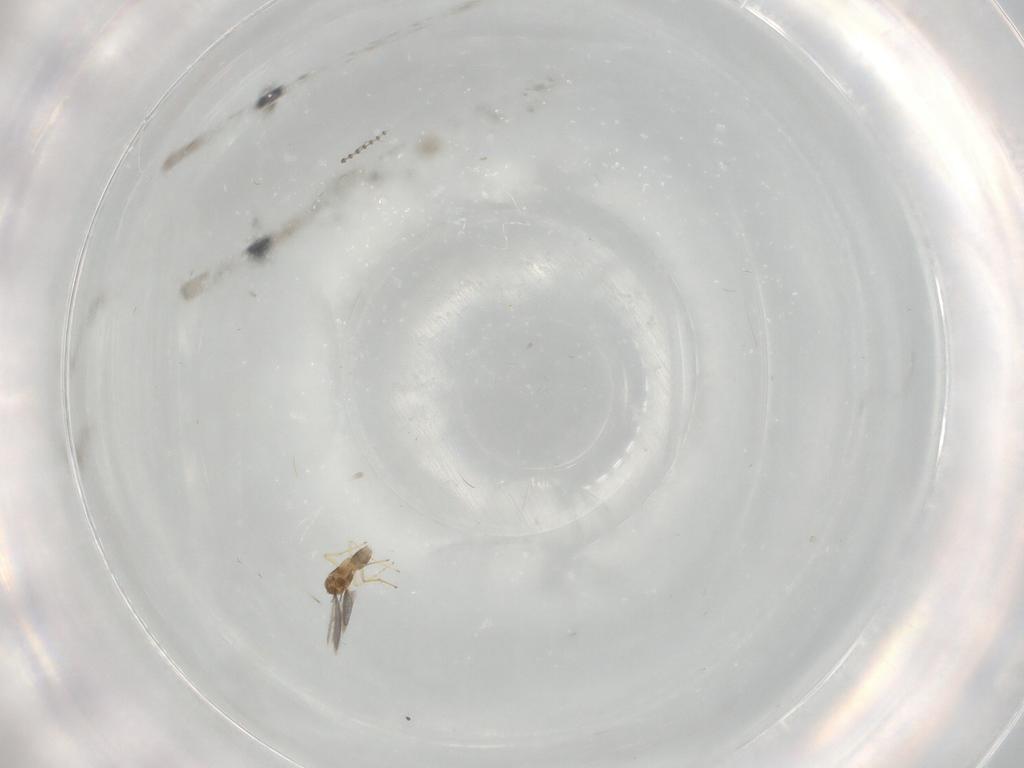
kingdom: Animalia
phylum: Arthropoda
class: Insecta
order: Hymenoptera
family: Mymaridae
